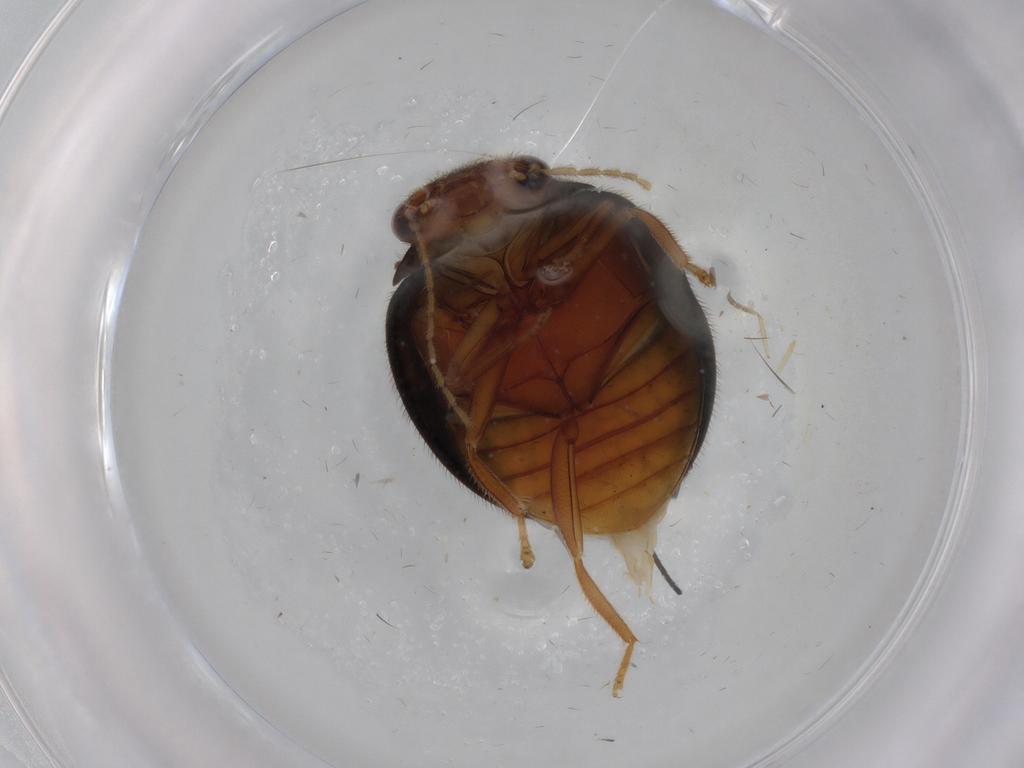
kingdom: Animalia
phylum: Arthropoda
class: Insecta
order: Coleoptera
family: Scirtidae
